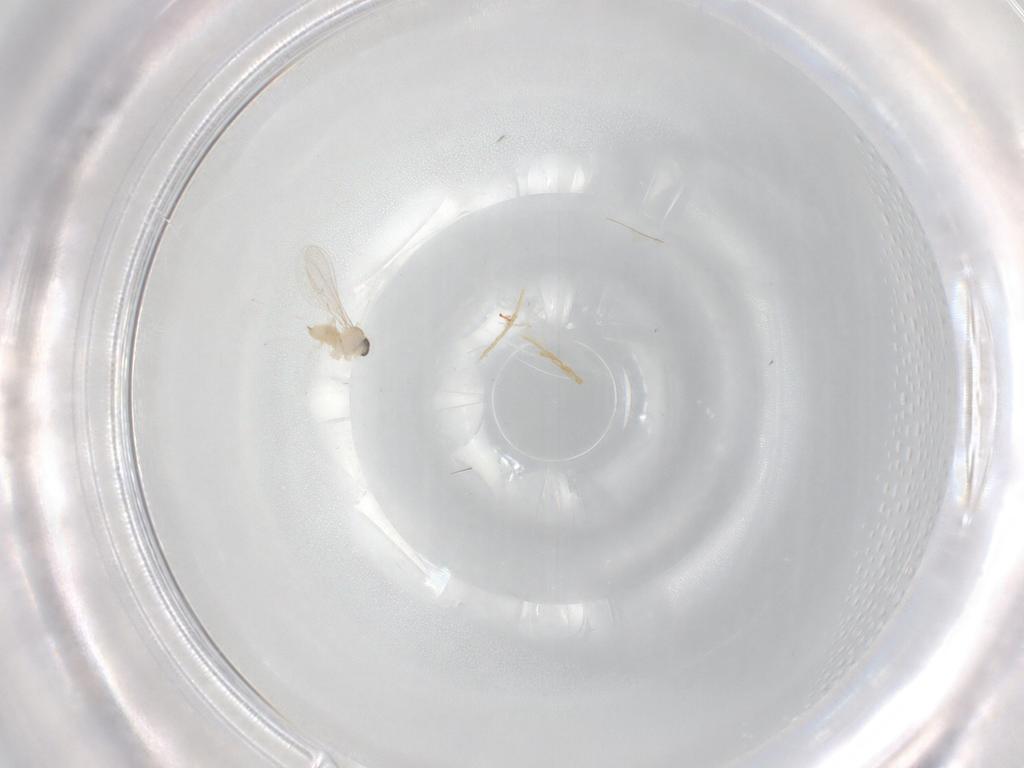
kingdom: Animalia
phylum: Arthropoda
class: Insecta
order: Diptera
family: Cecidomyiidae
